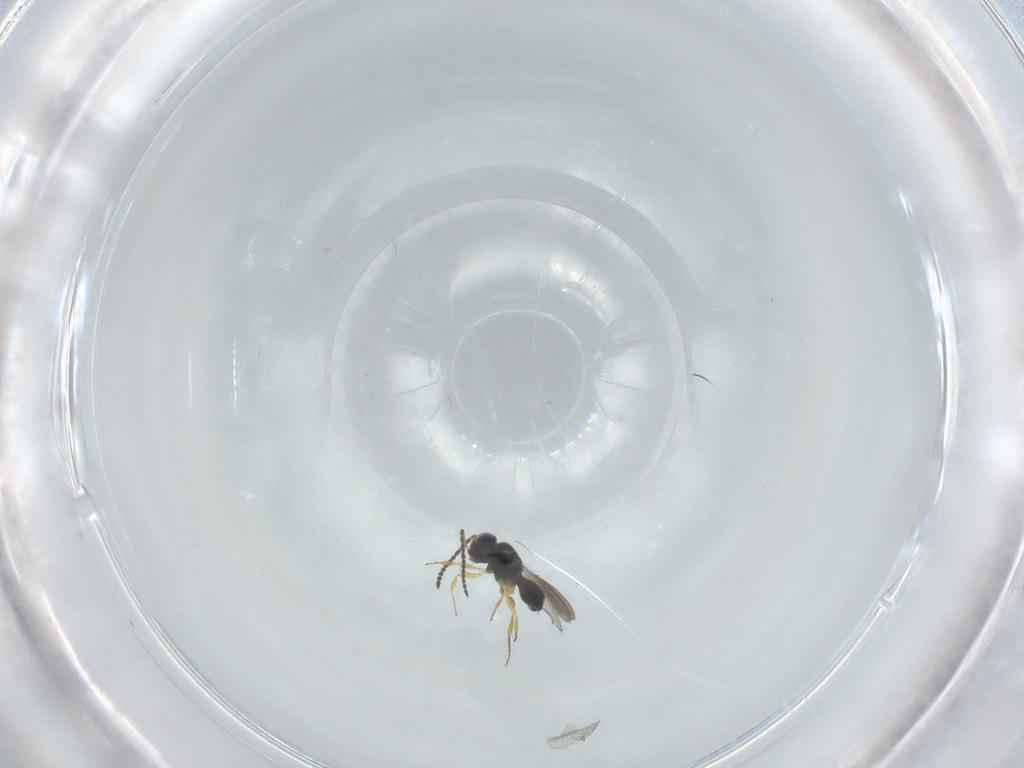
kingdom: Animalia
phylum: Arthropoda
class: Insecta
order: Hymenoptera
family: Scelionidae
